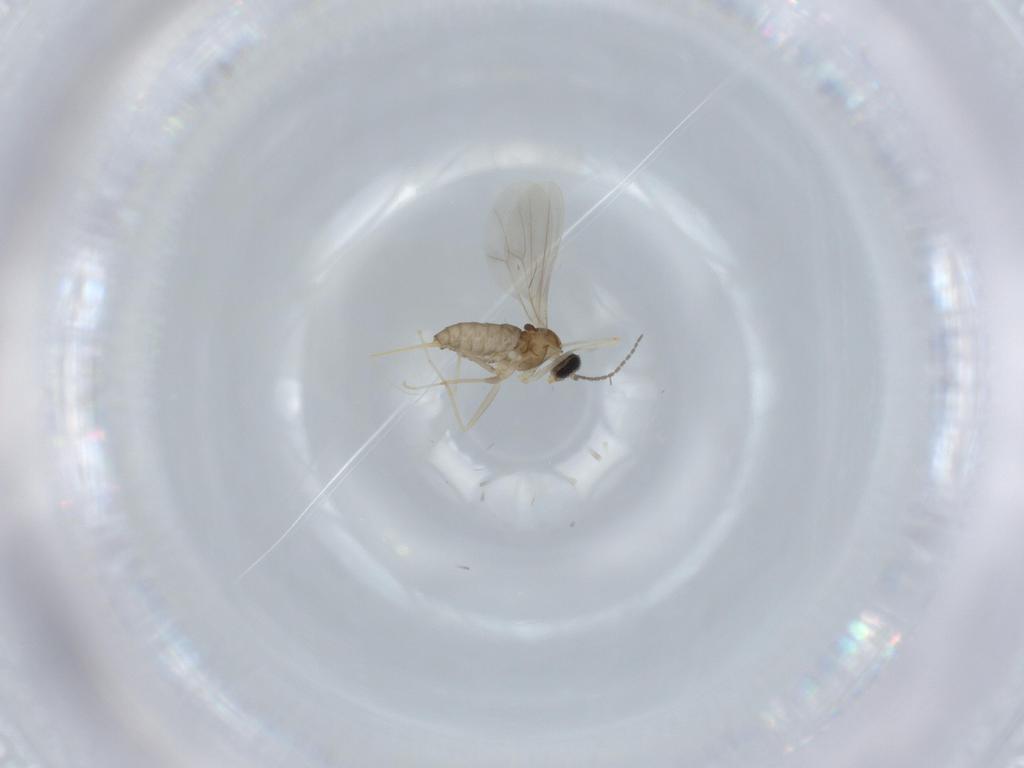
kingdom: Animalia
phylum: Arthropoda
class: Insecta
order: Diptera
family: Cecidomyiidae
